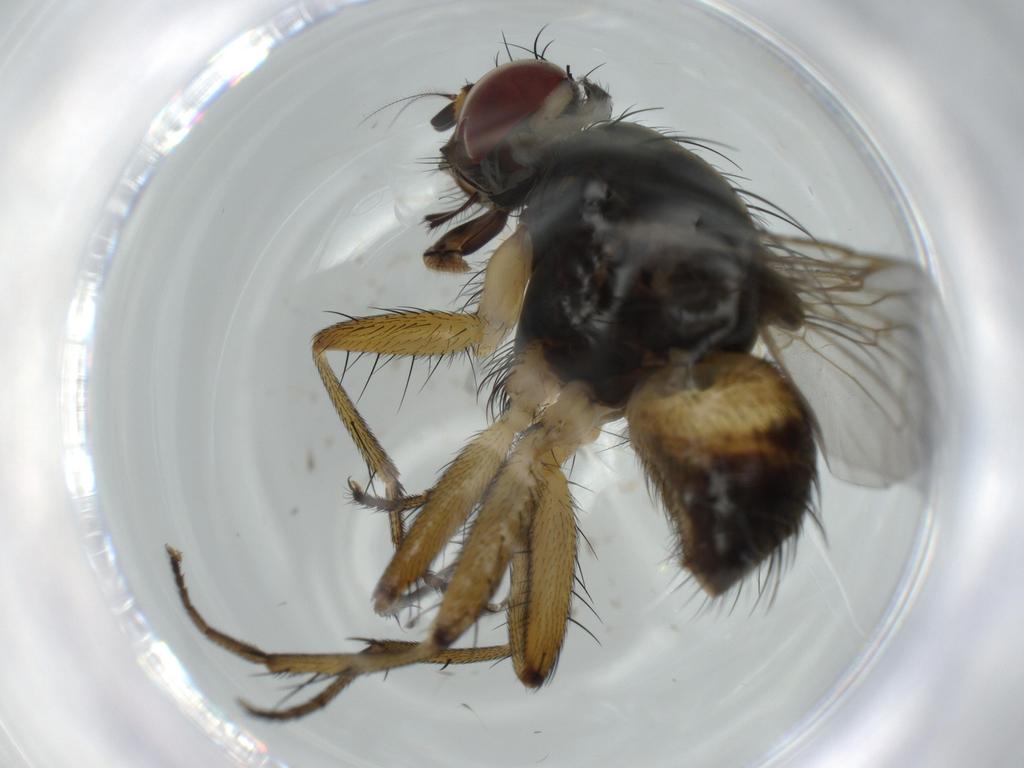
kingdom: Animalia
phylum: Arthropoda
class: Insecta
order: Diptera
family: Muscidae
